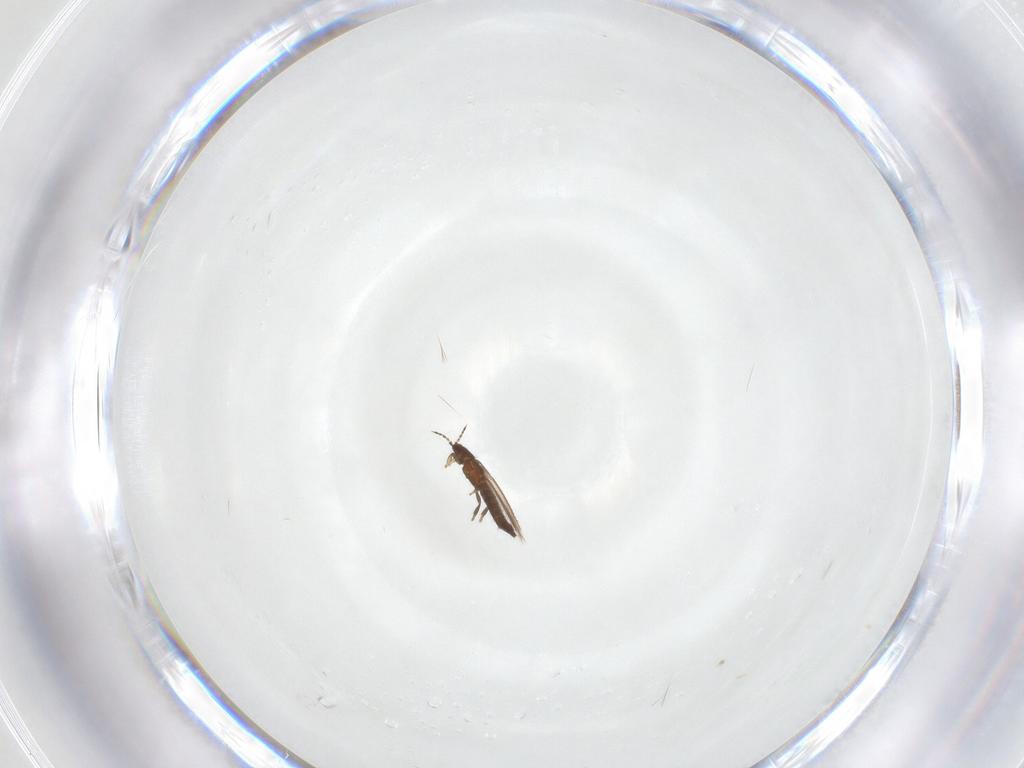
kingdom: Animalia
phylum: Arthropoda
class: Insecta
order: Thysanoptera
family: Thripidae
